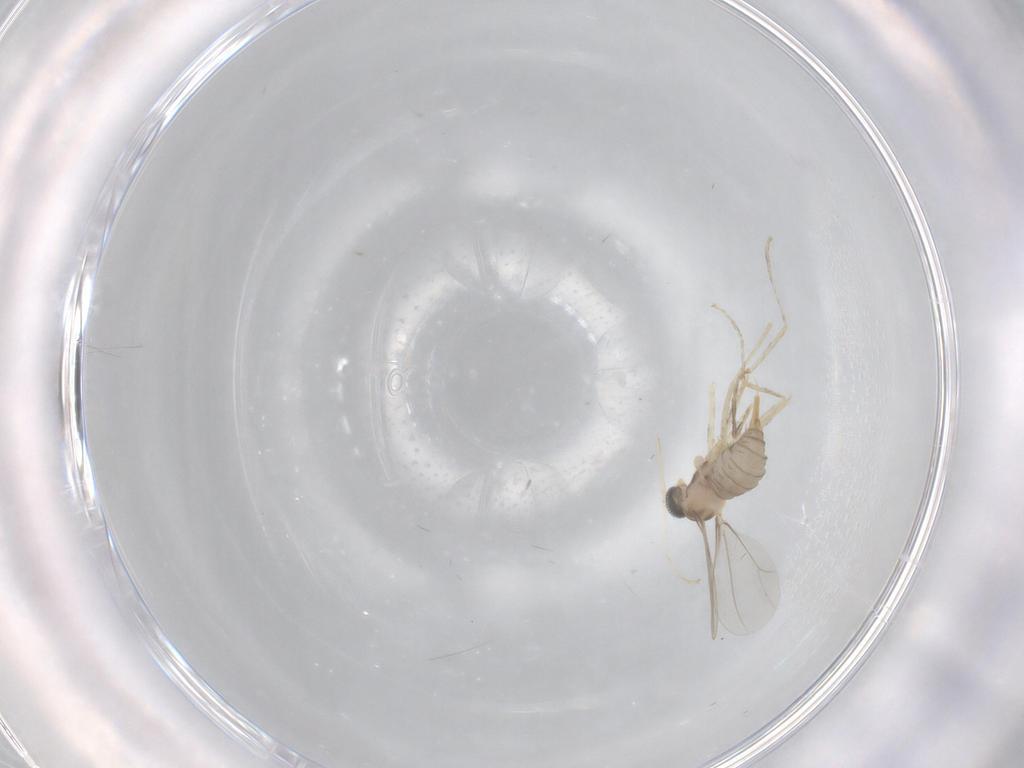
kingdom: Animalia
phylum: Arthropoda
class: Insecta
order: Diptera
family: Cecidomyiidae
